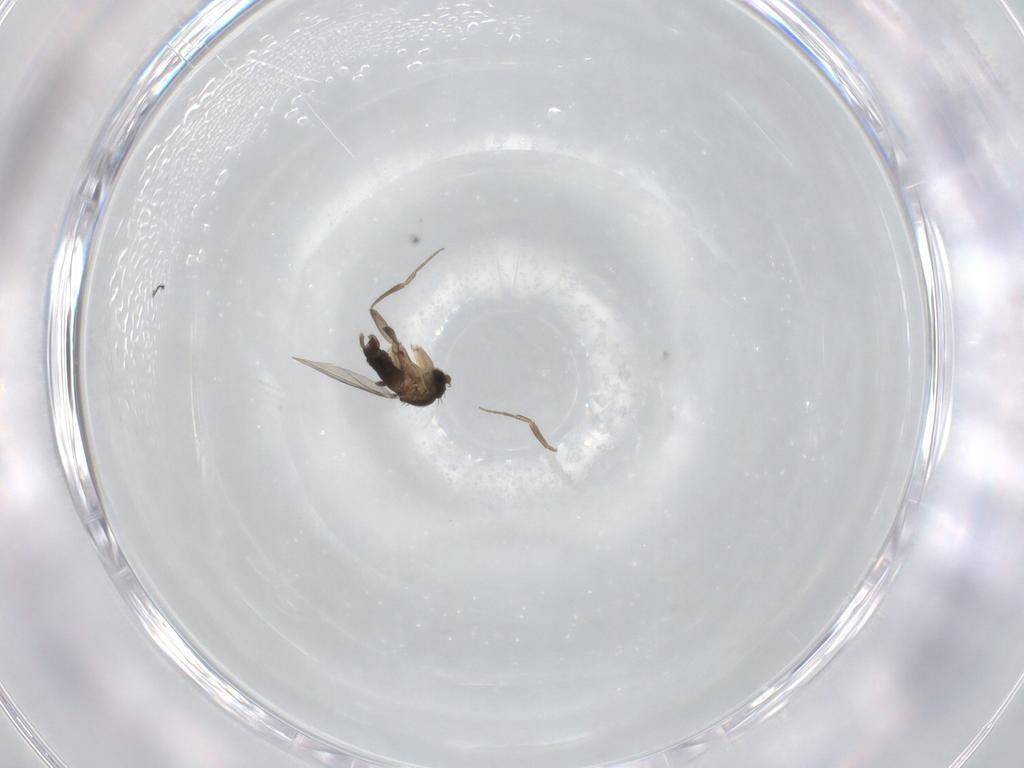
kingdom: Animalia
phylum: Arthropoda
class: Insecta
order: Diptera
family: Phoridae
